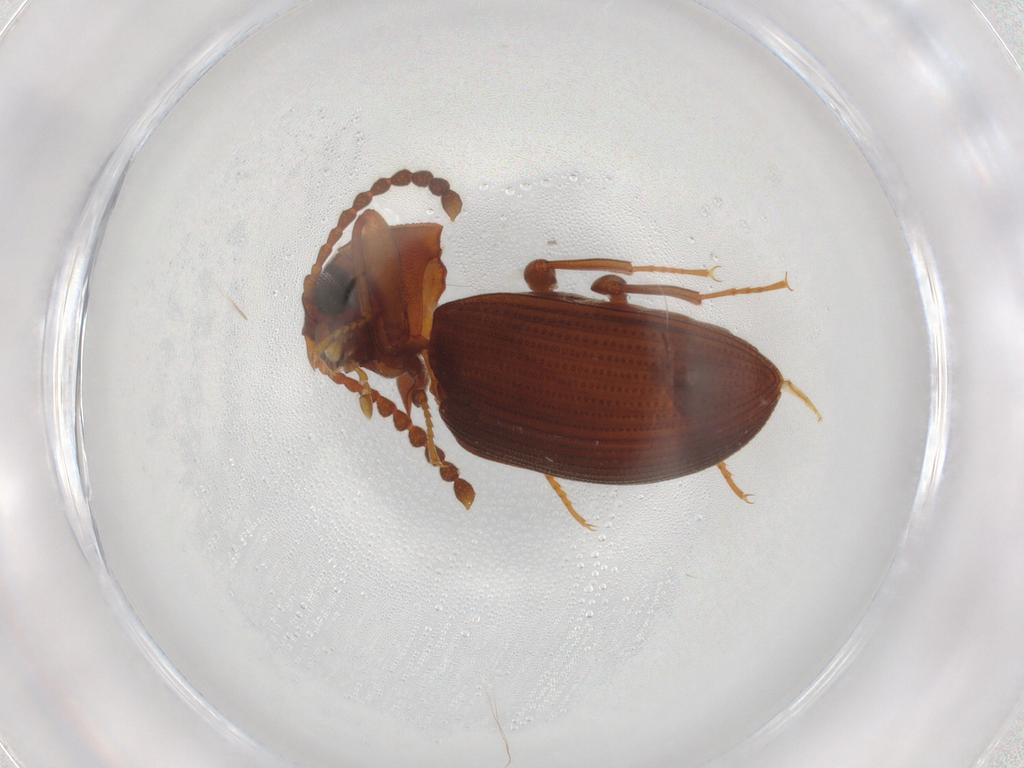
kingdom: Animalia
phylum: Arthropoda
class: Insecta
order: Coleoptera
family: Tenebrionidae
